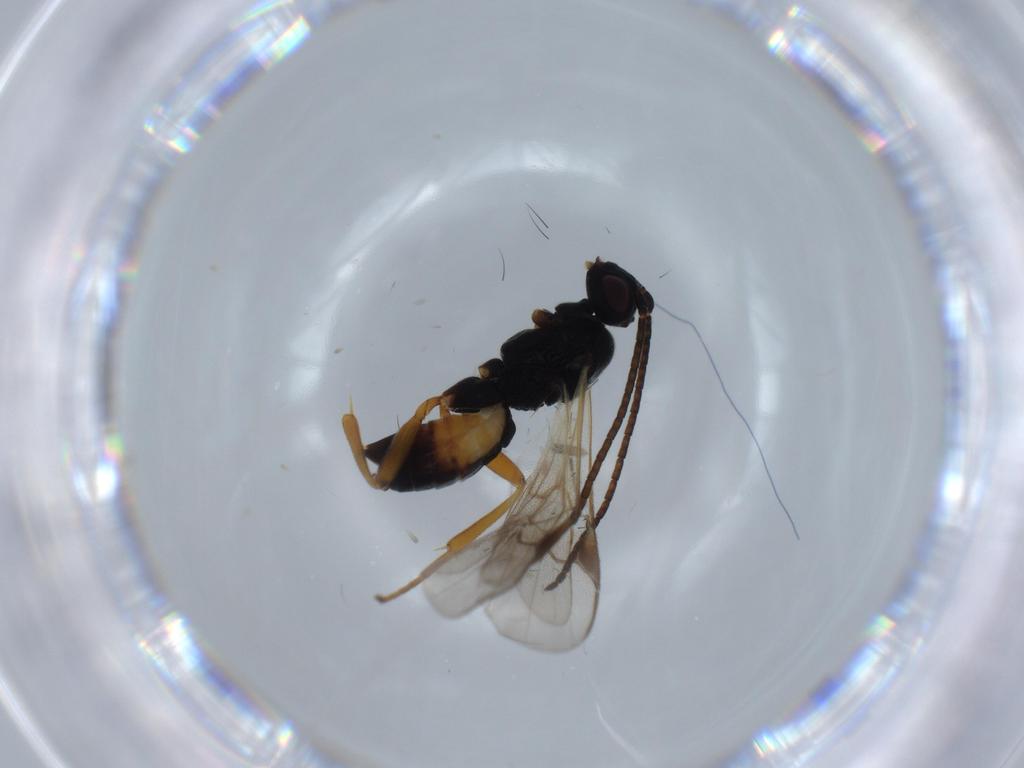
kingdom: Animalia
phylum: Arthropoda
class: Insecta
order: Hymenoptera
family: Braconidae
